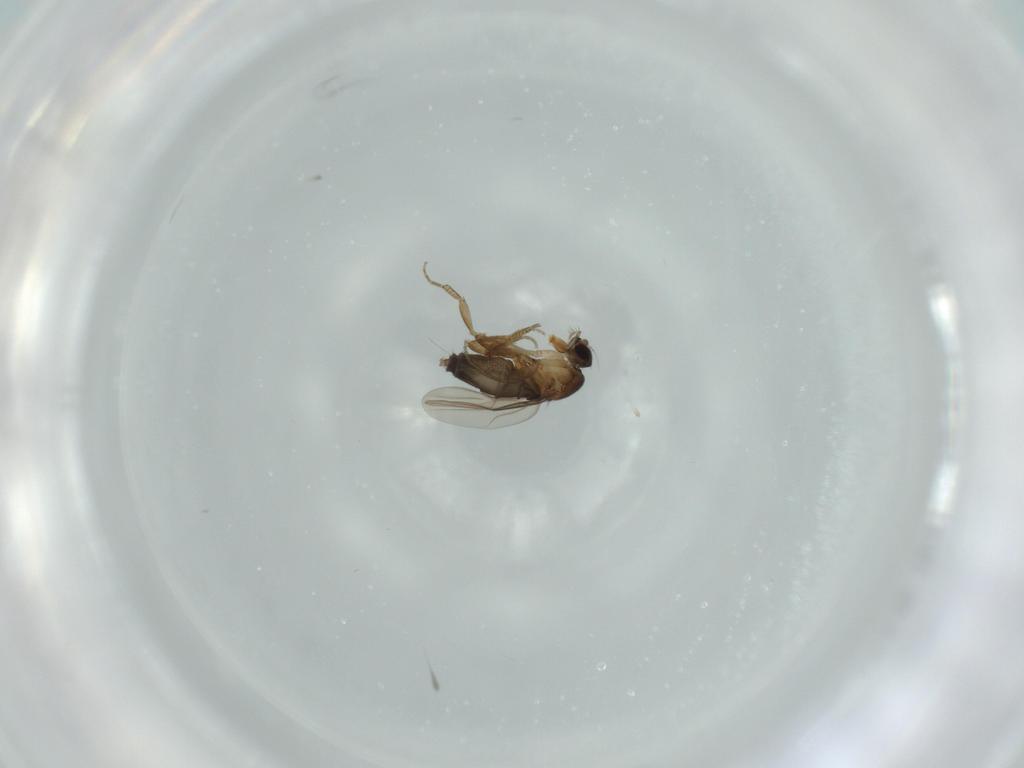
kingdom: Animalia
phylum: Arthropoda
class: Insecta
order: Diptera
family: Phoridae
